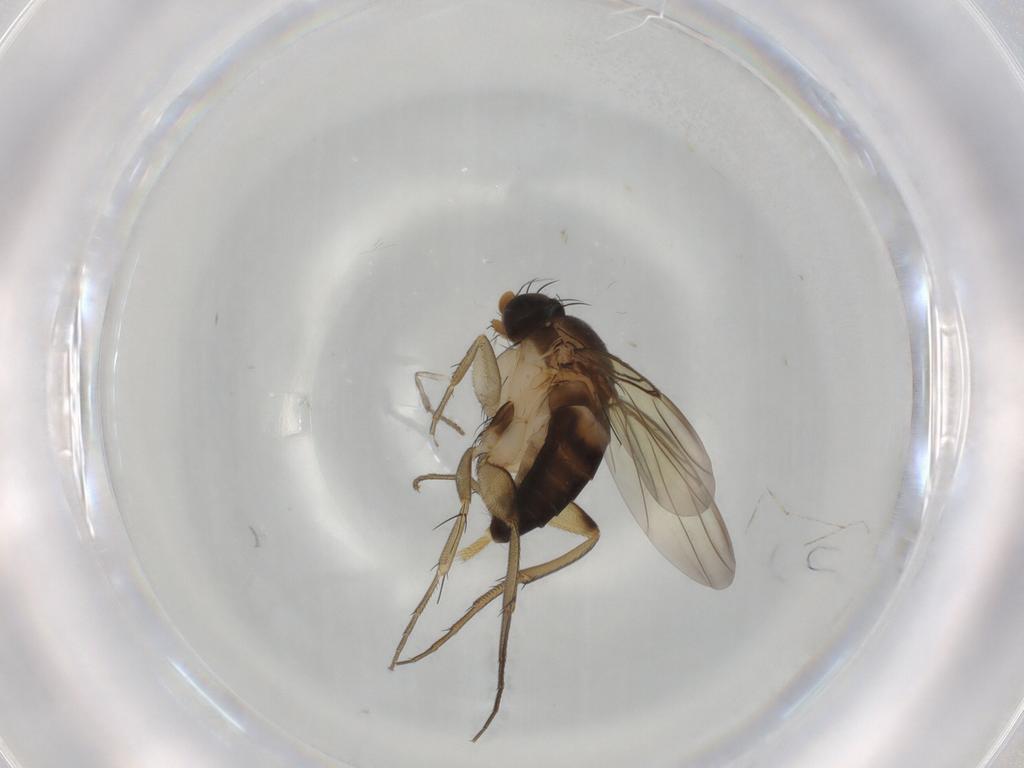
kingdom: Animalia
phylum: Arthropoda
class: Insecta
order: Diptera
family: Phoridae
